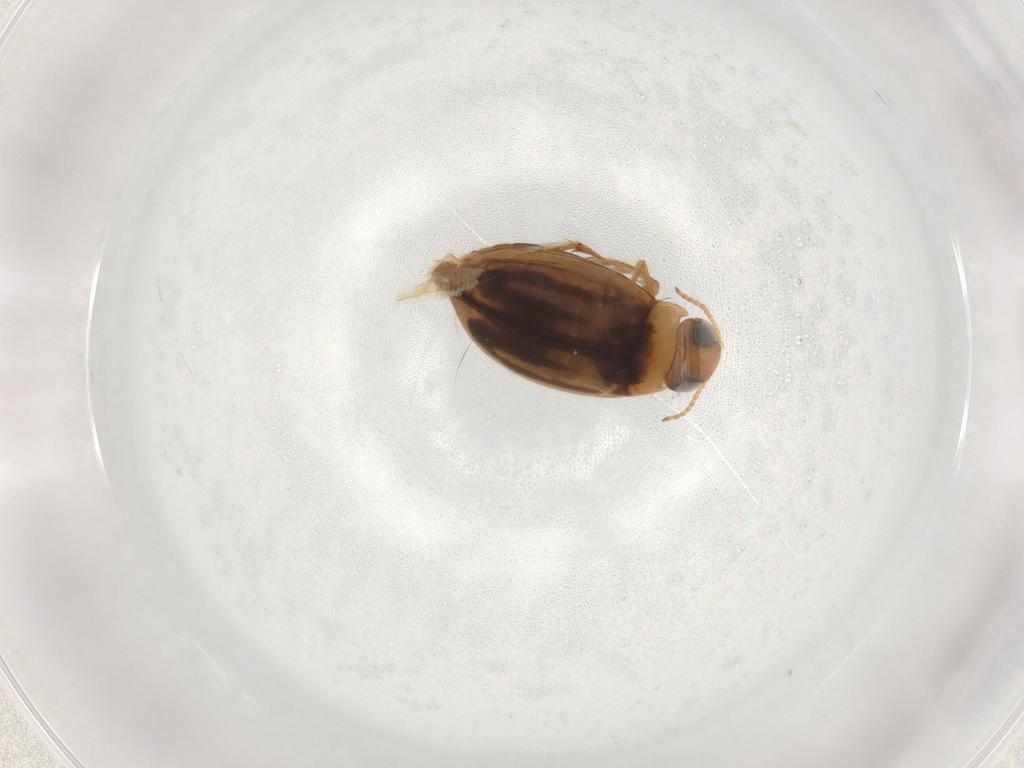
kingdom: Animalia
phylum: Arthropoda
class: Insecta
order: Coleoptera
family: Dytiscidae
